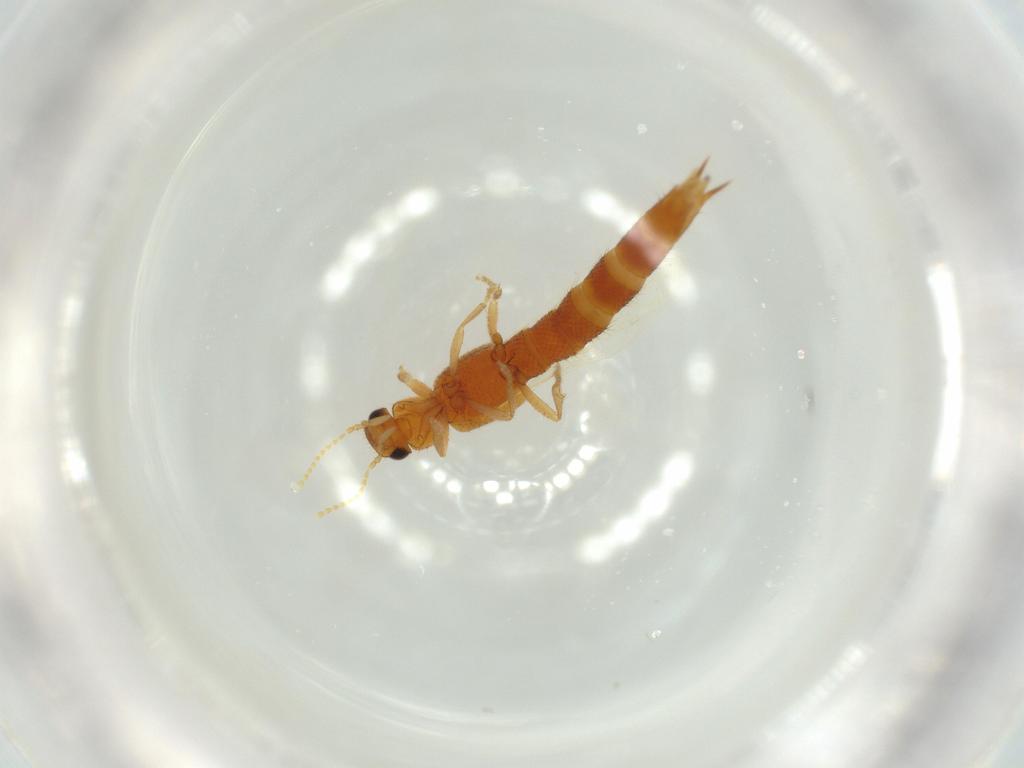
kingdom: Animalia
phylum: Arthropoda
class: Insecta
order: Coleoptera
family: Staphylinidae
